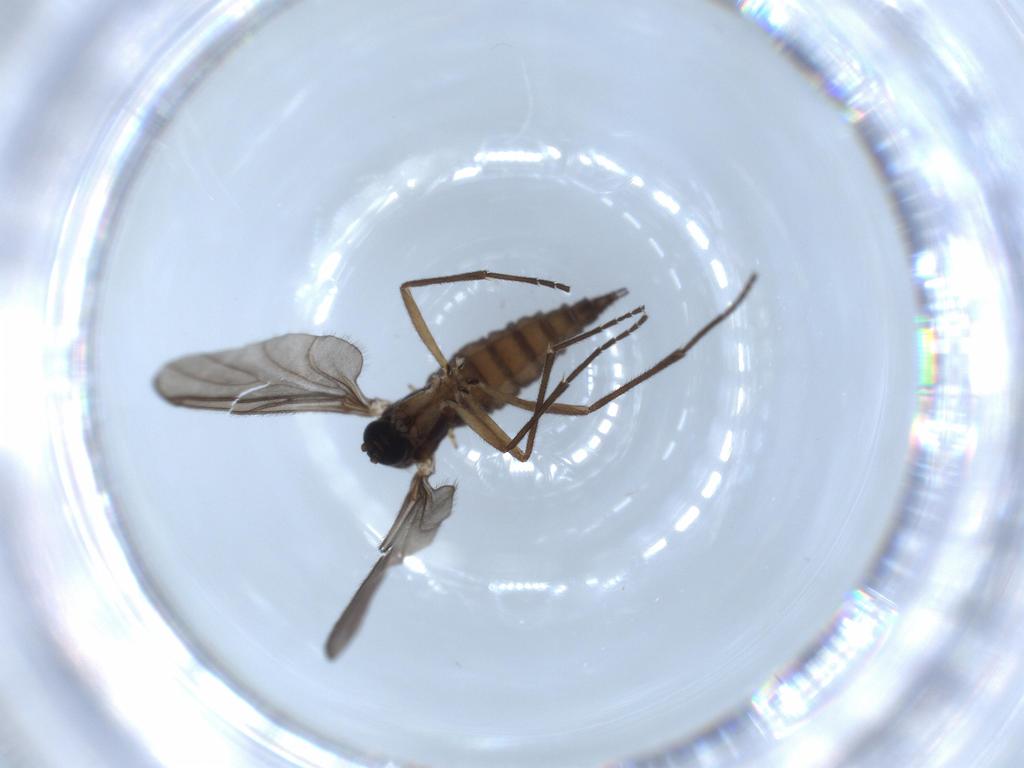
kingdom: Animalia
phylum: Arthropoda
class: Insecta
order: Diptera
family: Sciaridae
